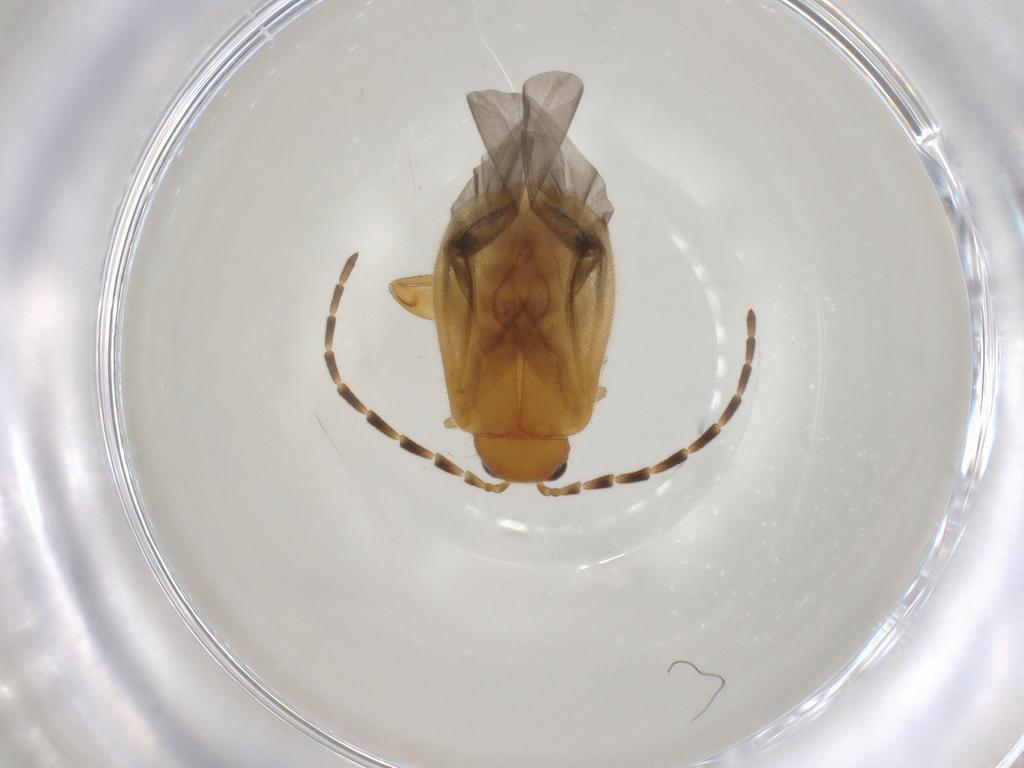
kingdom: Animalia
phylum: Arthropoda
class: Insecta
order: Coleoptera
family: Chrysomelidae
